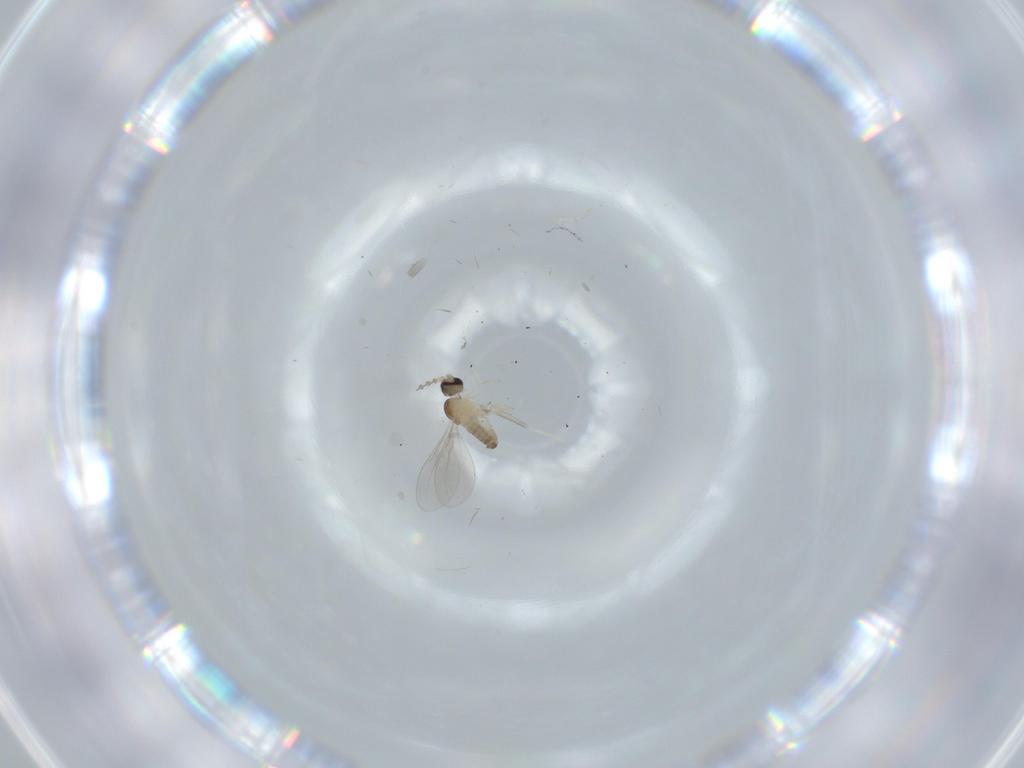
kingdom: Animalia
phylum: Arthropoda
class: Insecta
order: Diptera
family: Cecidomyiidae
